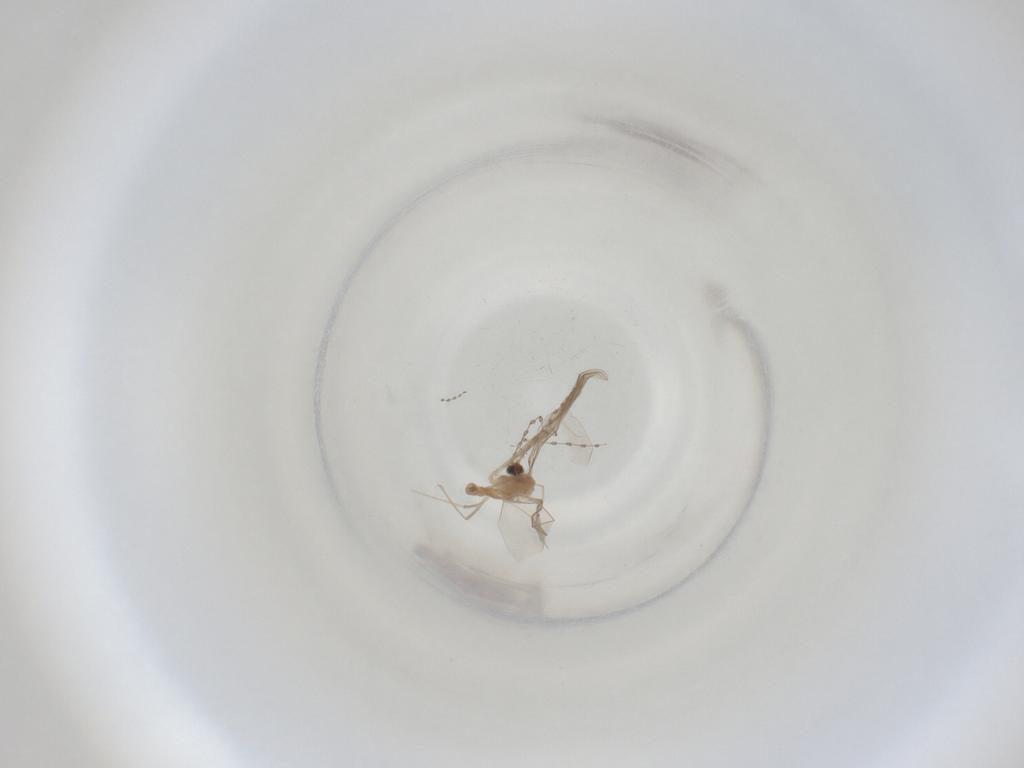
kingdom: Animalia
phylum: Arthropoda
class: Insecta
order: Diptera
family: Cecidomyiidae
